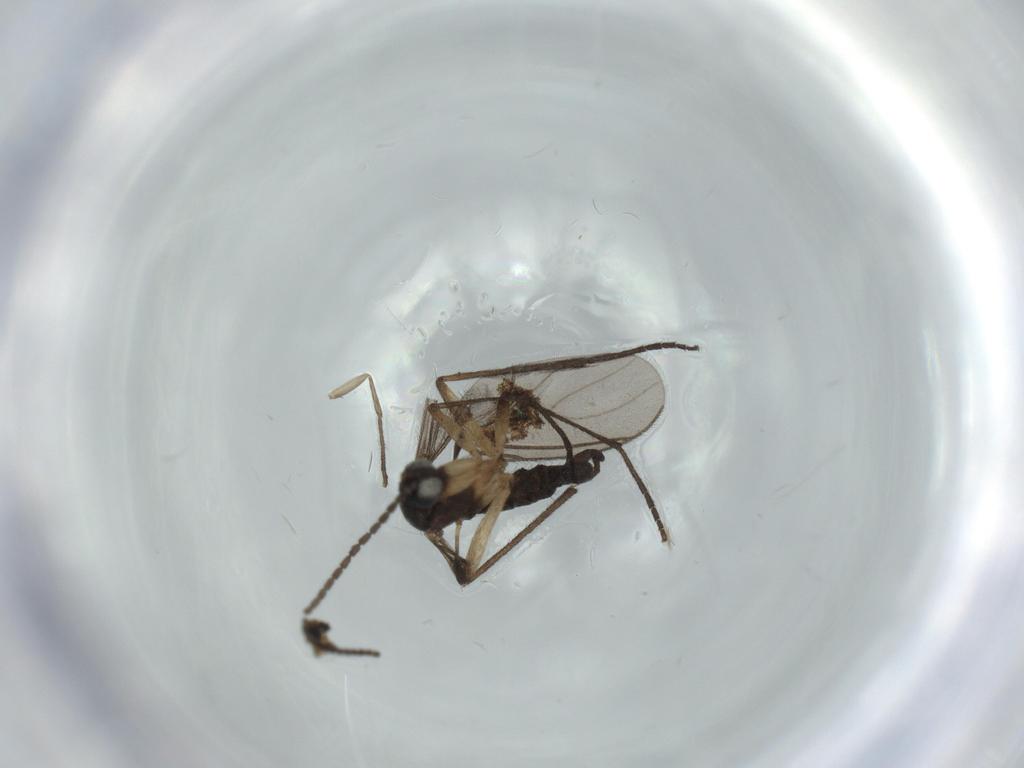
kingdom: Animalia
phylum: Arthropoda
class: Insecta
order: Diptera
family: Sciaridae
